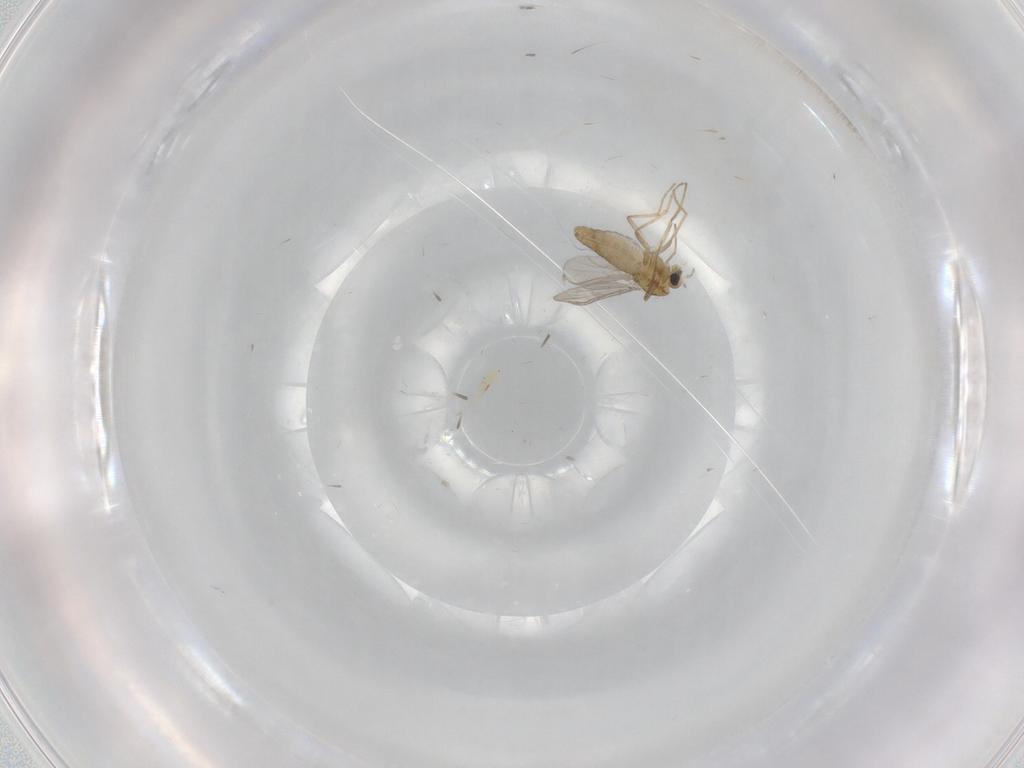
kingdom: Animalia
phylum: Arthropoda
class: Insecta
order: Diptera
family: Chironomidae
